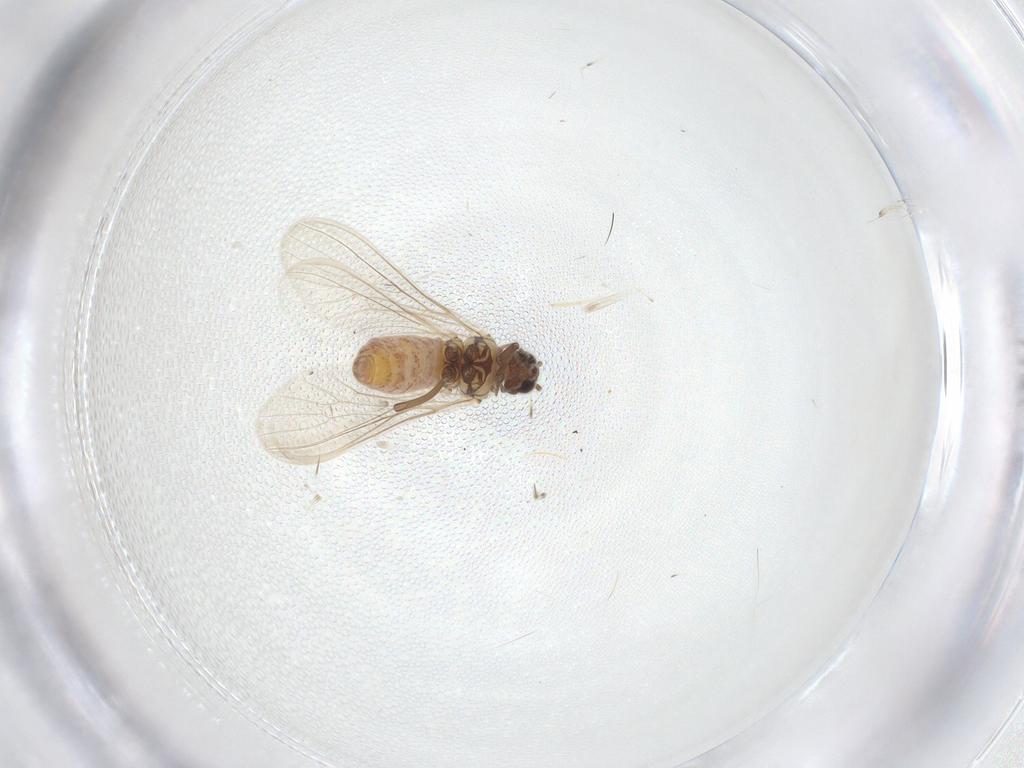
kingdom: Animalia
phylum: Arthropoda
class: Insecta
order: Neuroptera
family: Coniopterygidae
